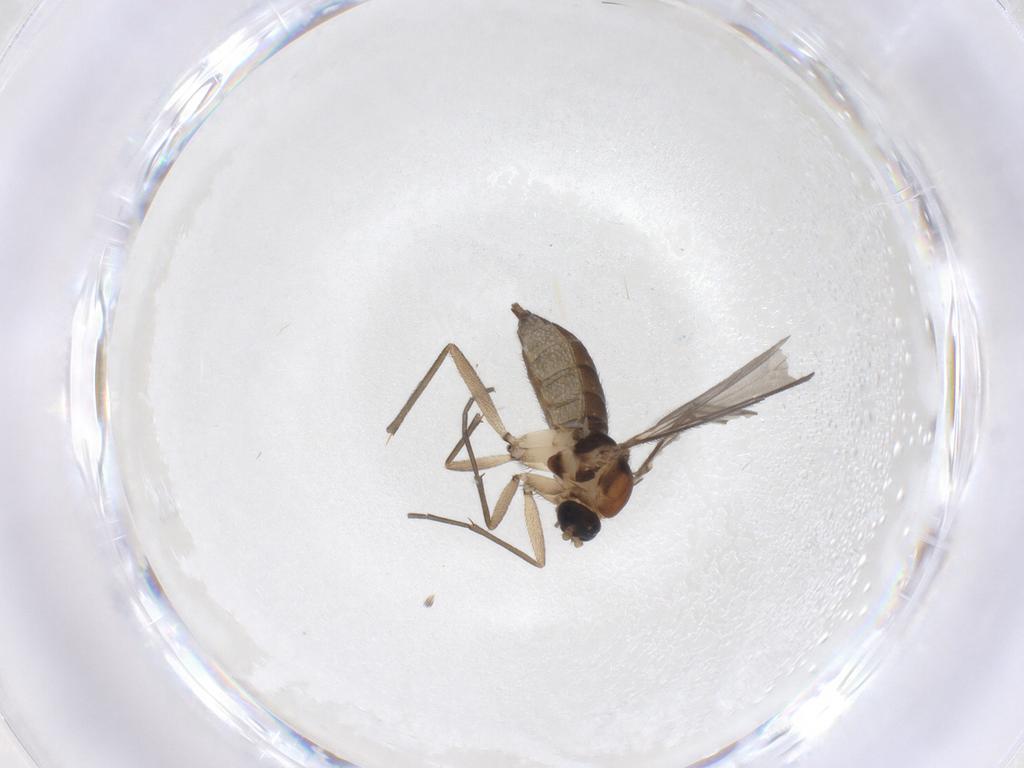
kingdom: Animalia
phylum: Arthropoda
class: Insecta
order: Diptera
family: Sciaridae
